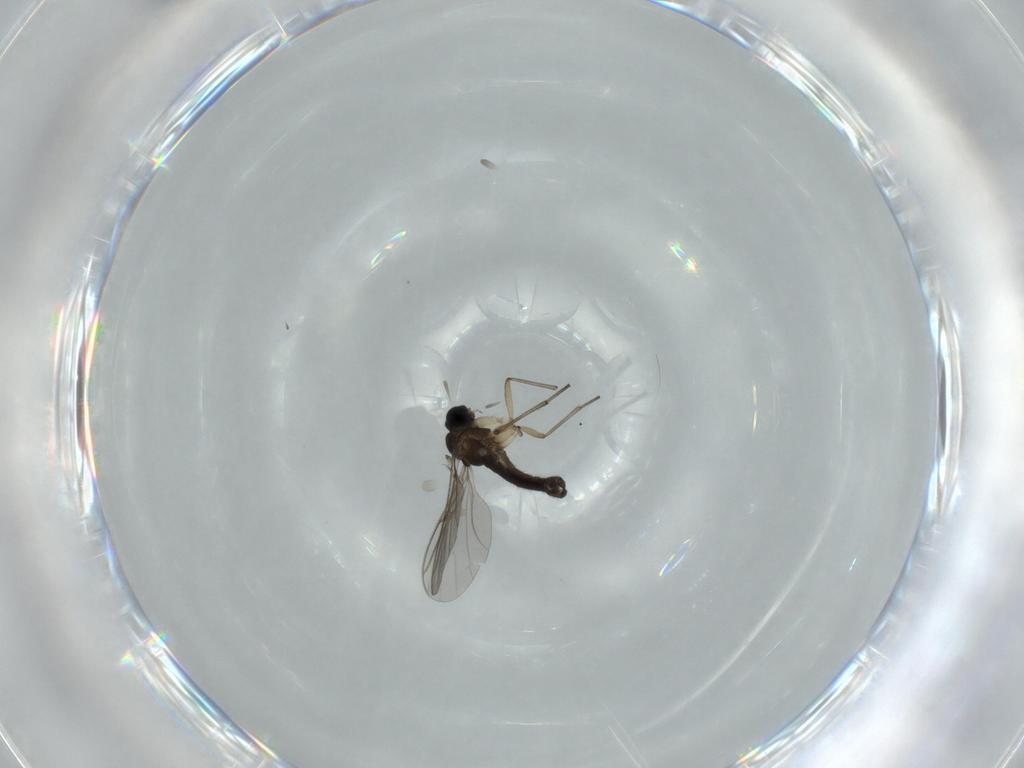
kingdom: Animalia
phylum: Arthropoda
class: Insecta
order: Diptera
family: Sciaridae
